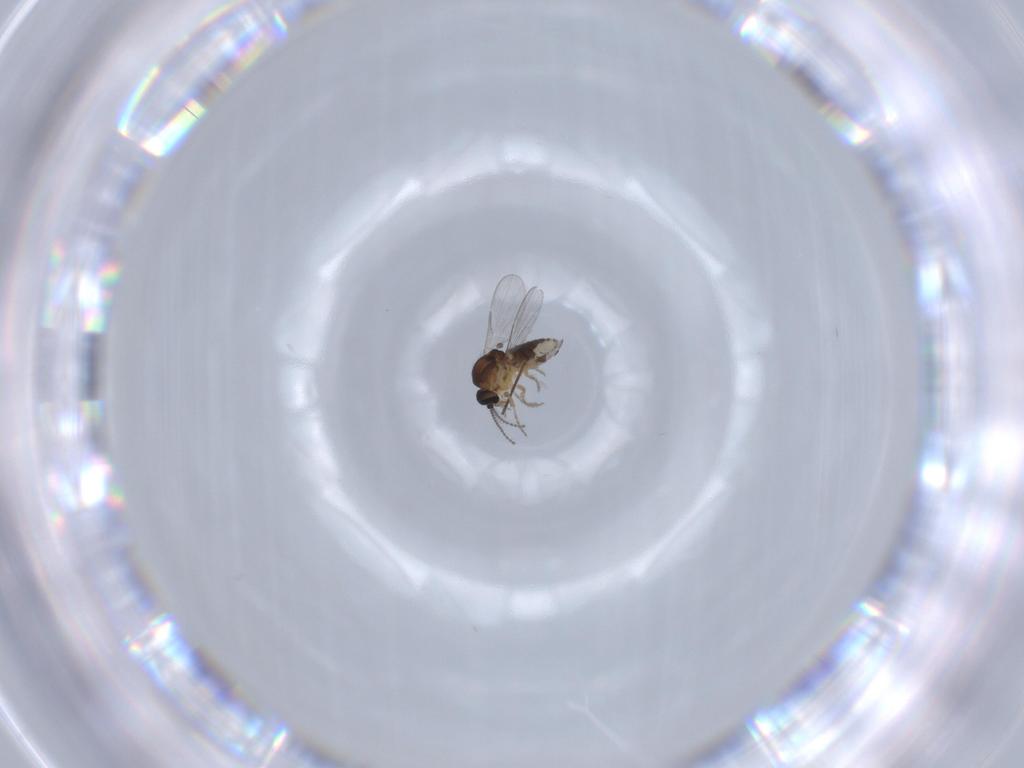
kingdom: Animalia
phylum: Arthropoda
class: Insecta
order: Diptera
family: Ceratopogonidae
